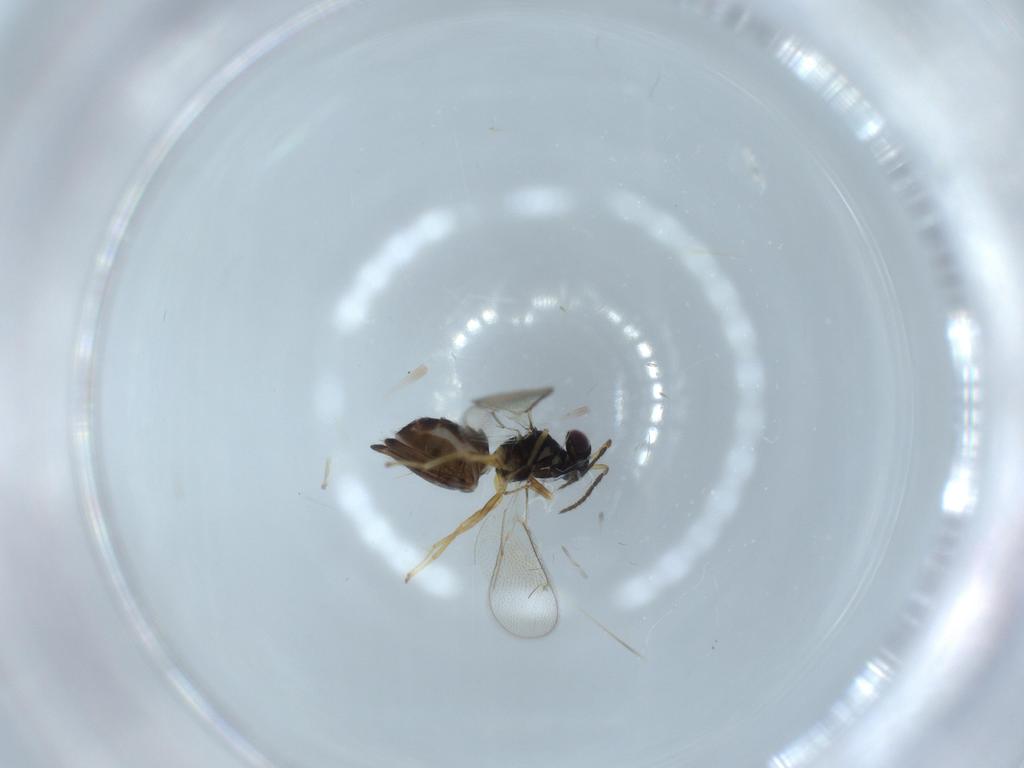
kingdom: Animalia
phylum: Arthropoda
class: Insecta
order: Hymenoptera
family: Eulophidae
